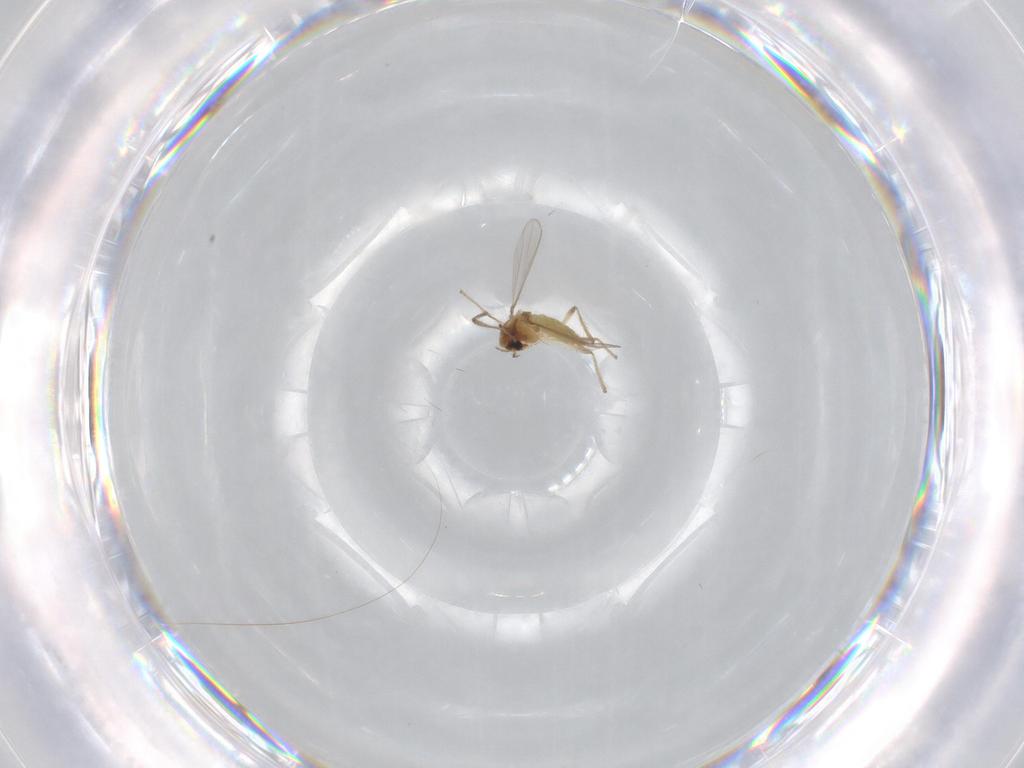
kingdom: Animalia
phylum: Arthropoda
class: Insecta
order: Diptera
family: Chironomidae
